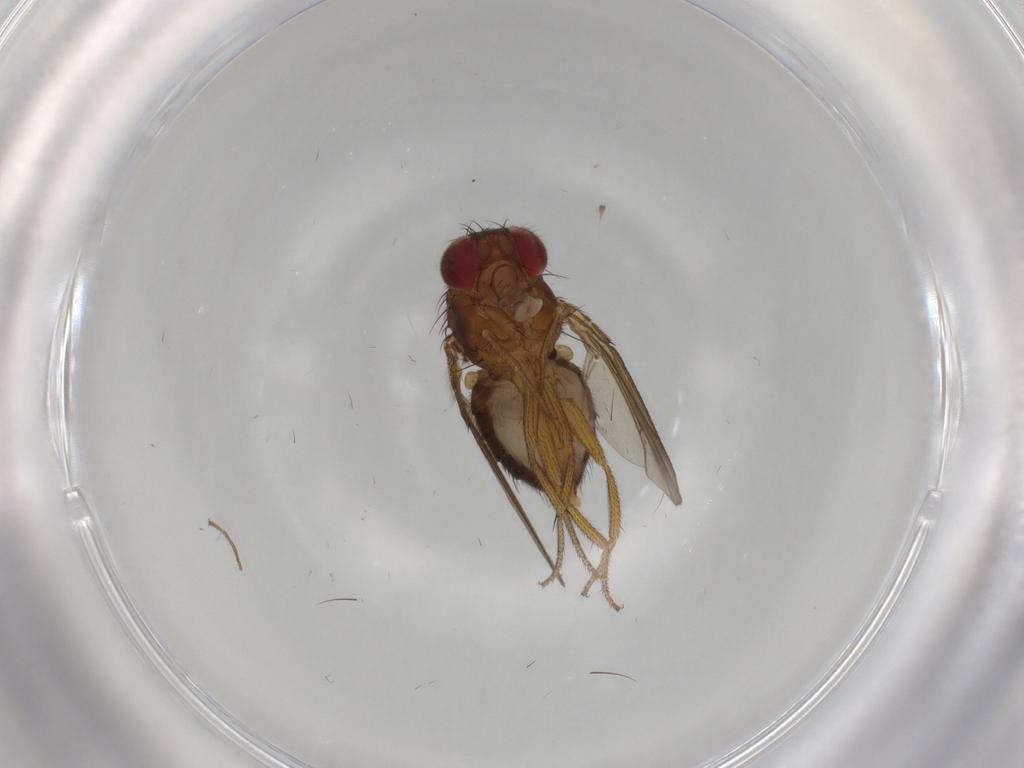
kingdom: Animalia
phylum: Arthropoda
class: Insecta
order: Diptera
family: Drosophilidae
